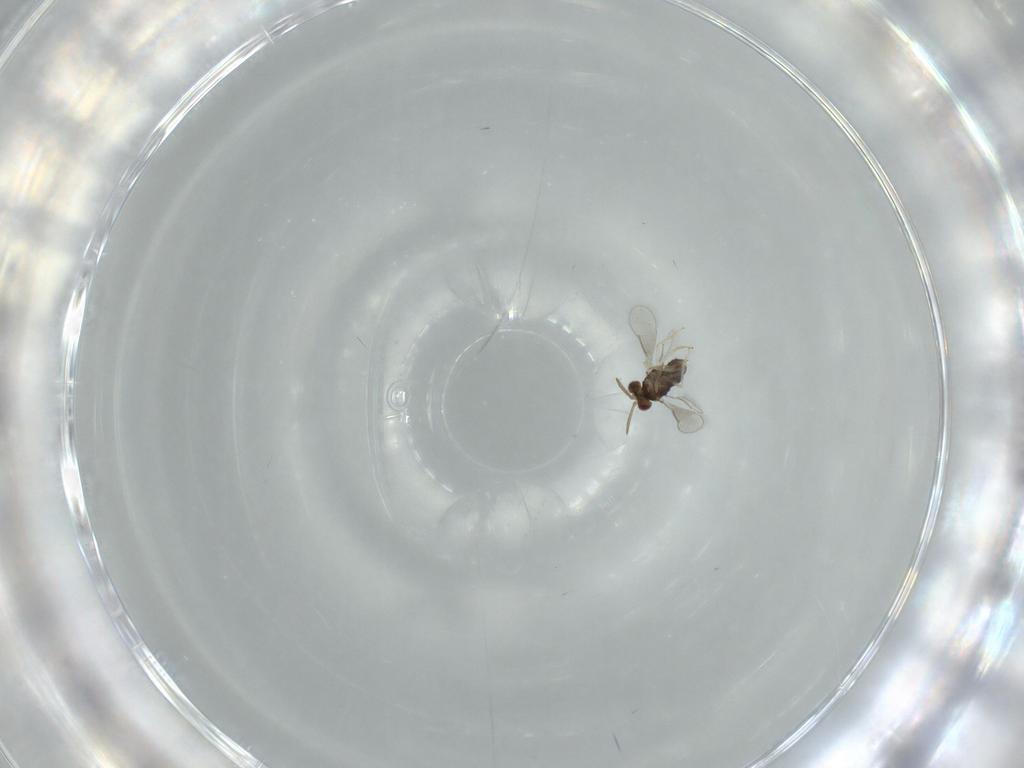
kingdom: Animalia
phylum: Arthropoda
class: Insecta
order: Hymenoptera
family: Aphelinidae
